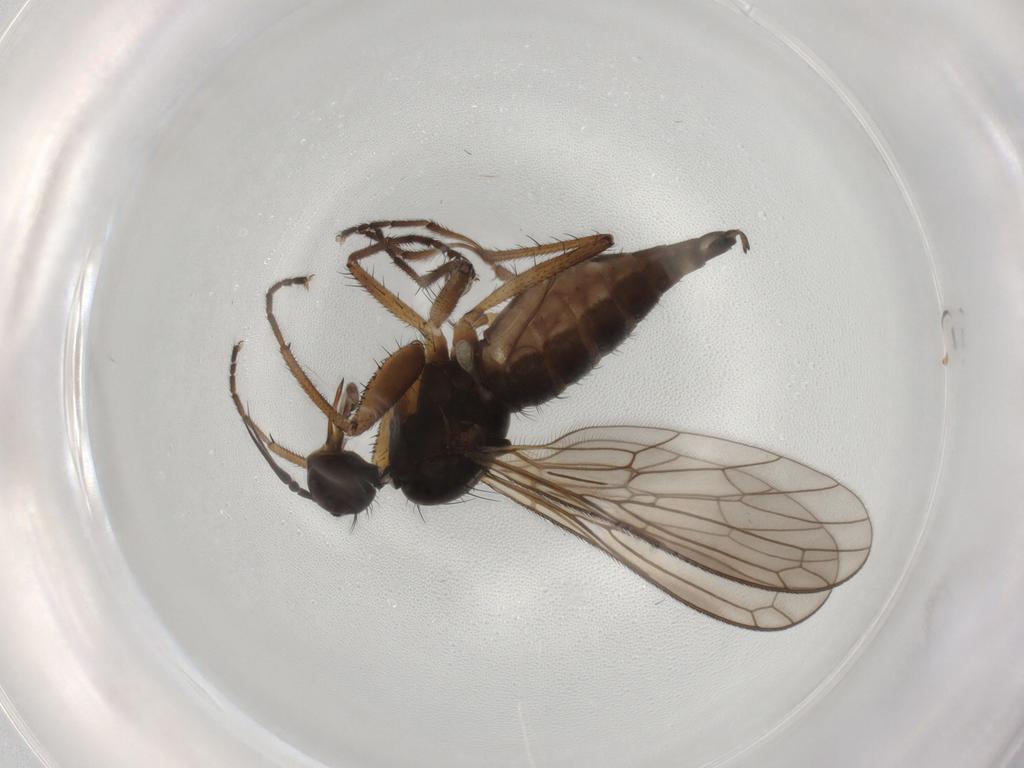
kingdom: Animalia
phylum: Arthropoda
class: Insecta
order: Diptera
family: Empididae
